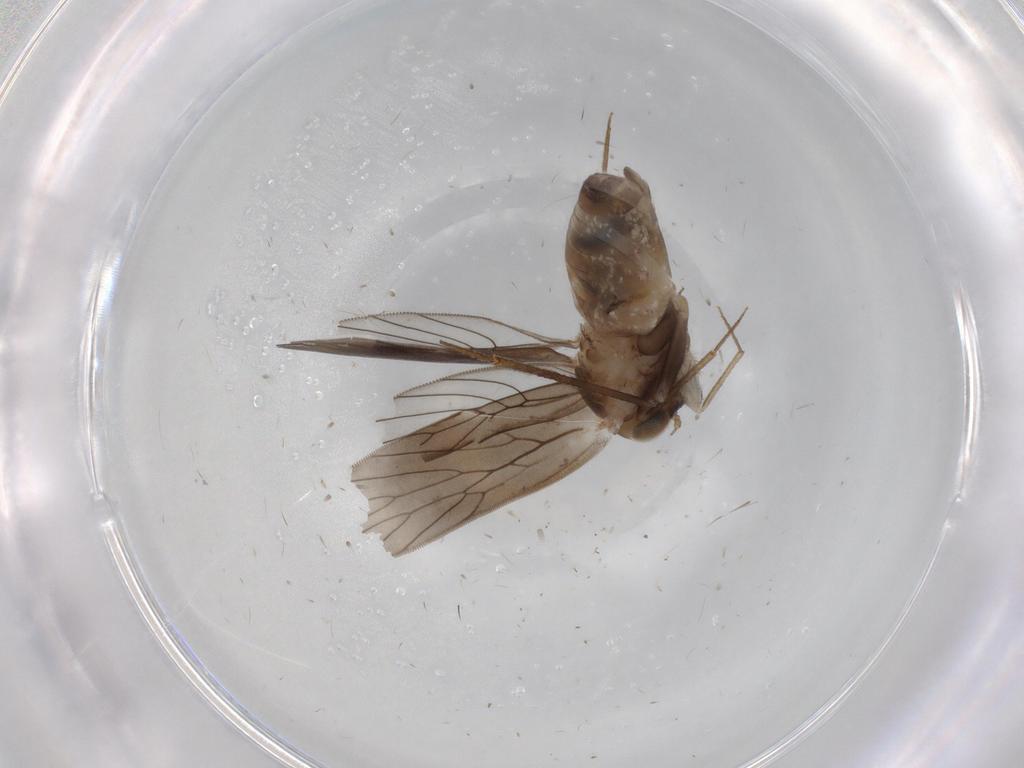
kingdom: Animalia
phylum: Arthropoda
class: Insecta
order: Psocodea
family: Lepidopsocidae
